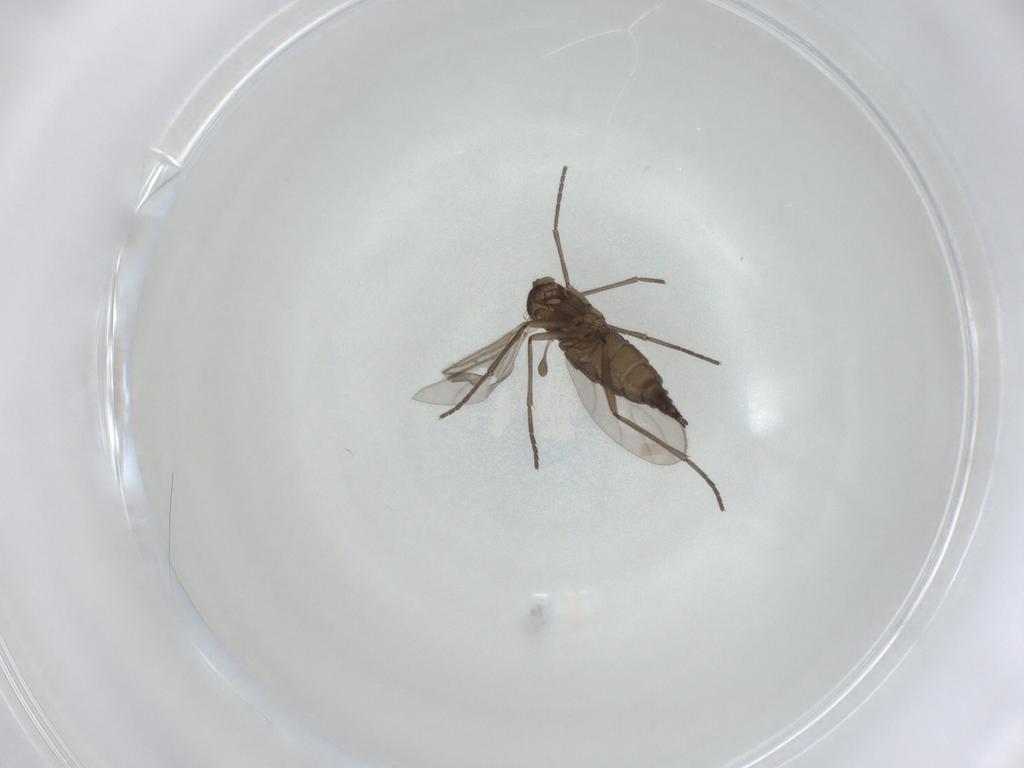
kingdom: Animalia
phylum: Arthropoda
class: Insecta
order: Diptera
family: Sciaridae
